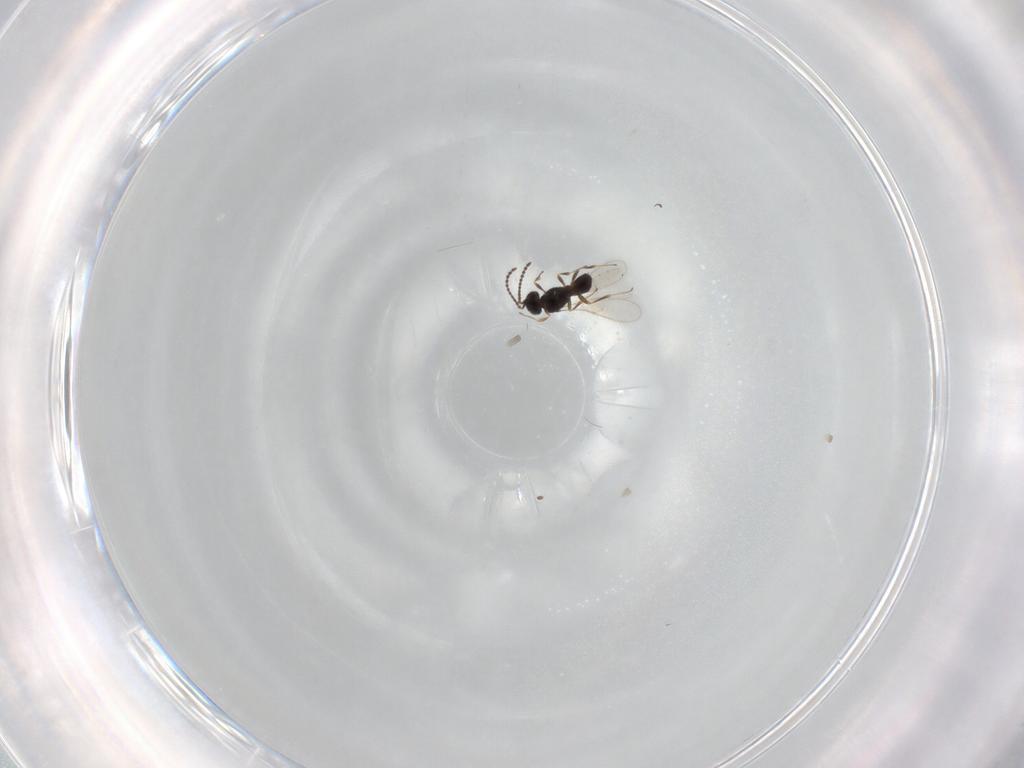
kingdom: Animalia
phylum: Arthropoda
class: Insecta
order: Hymenoptera
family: Scelionidae
